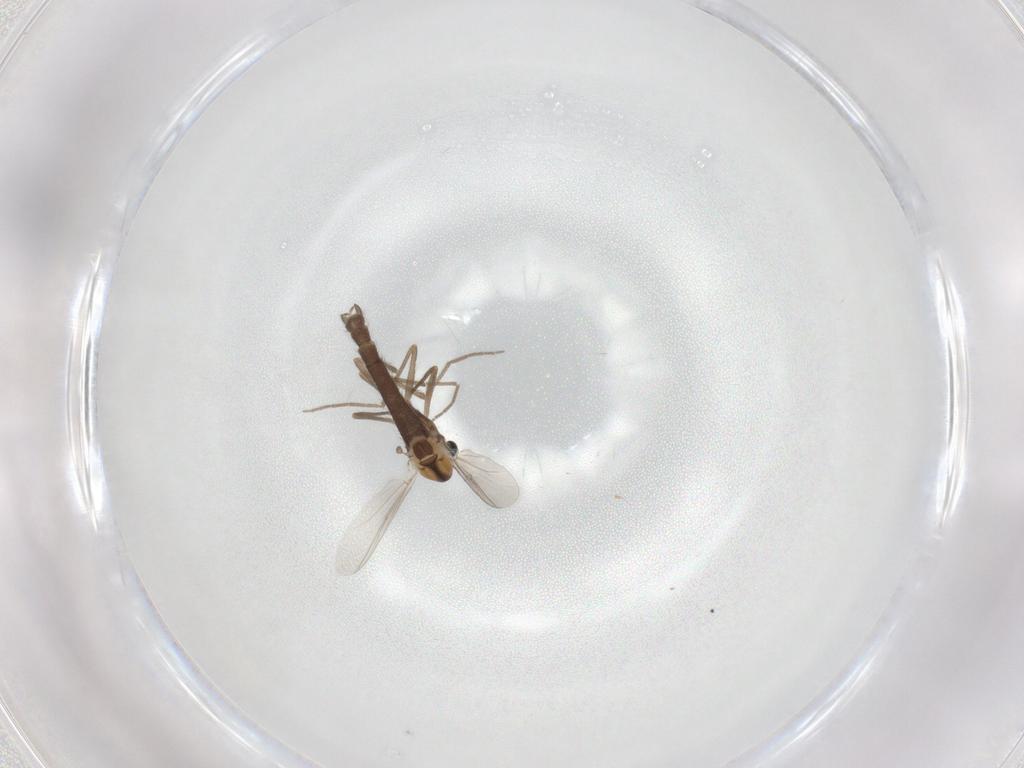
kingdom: Animalia
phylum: Arthropoda
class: Insecta
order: Diptera
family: Chironomidae
